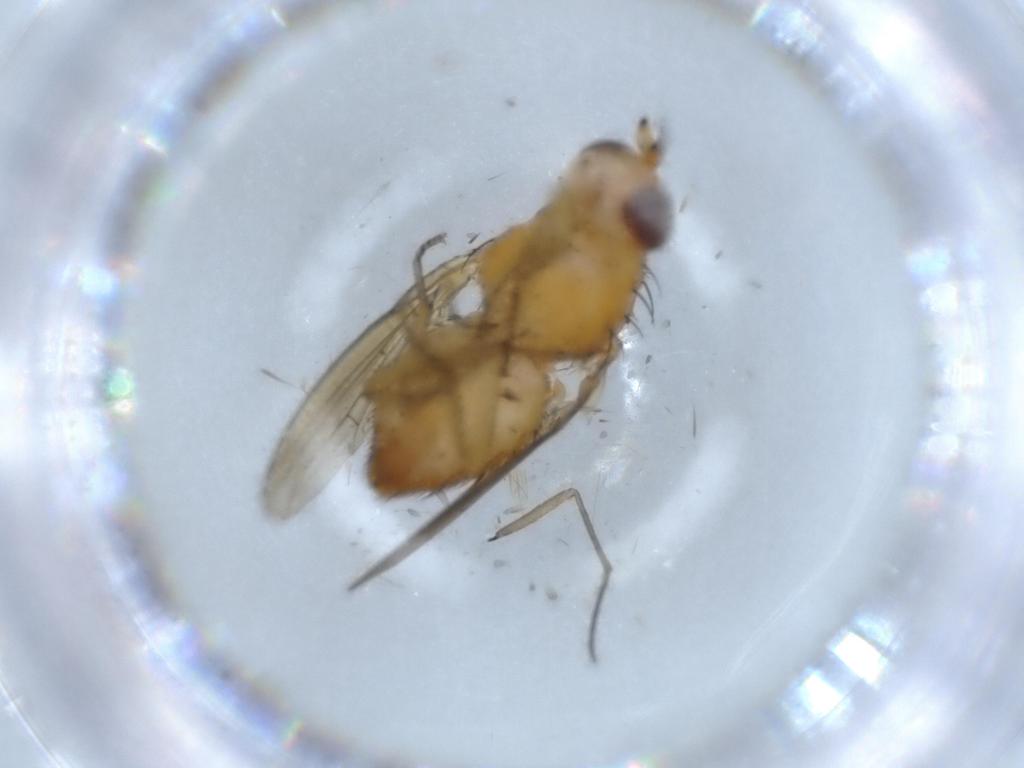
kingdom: Animalia
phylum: Arthropoda
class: Insecta
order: Diptera
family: Lauxaniidae
